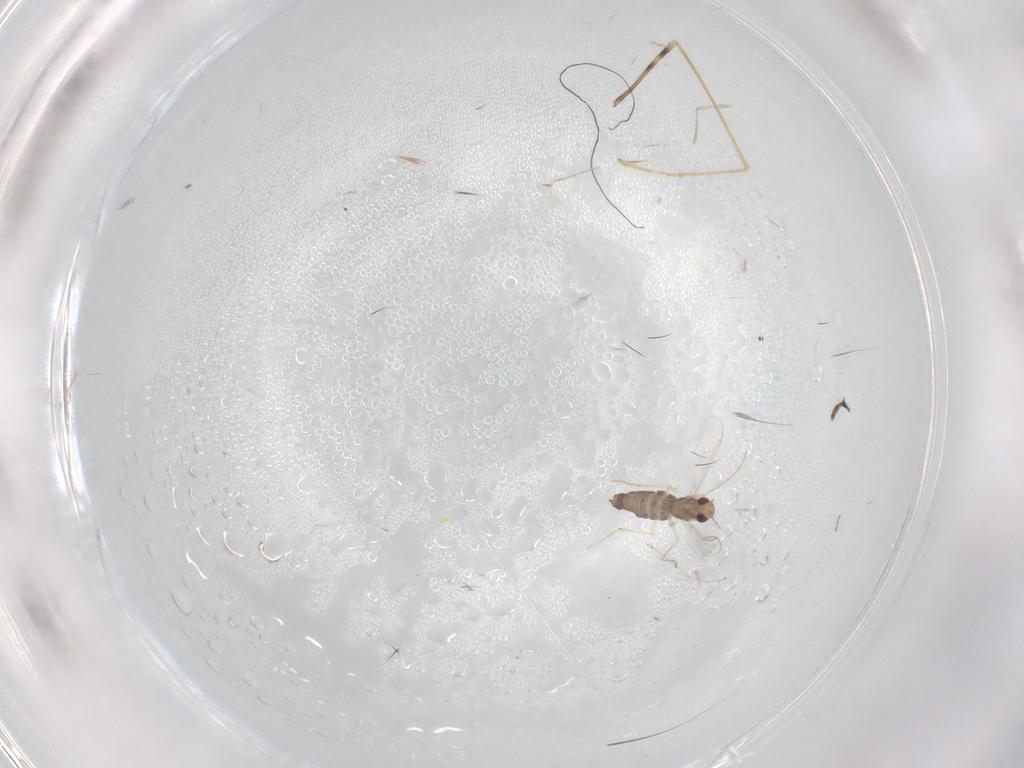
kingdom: Animalia
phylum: Arthropoda
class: Insecta
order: Diptera
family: Chironomidae
